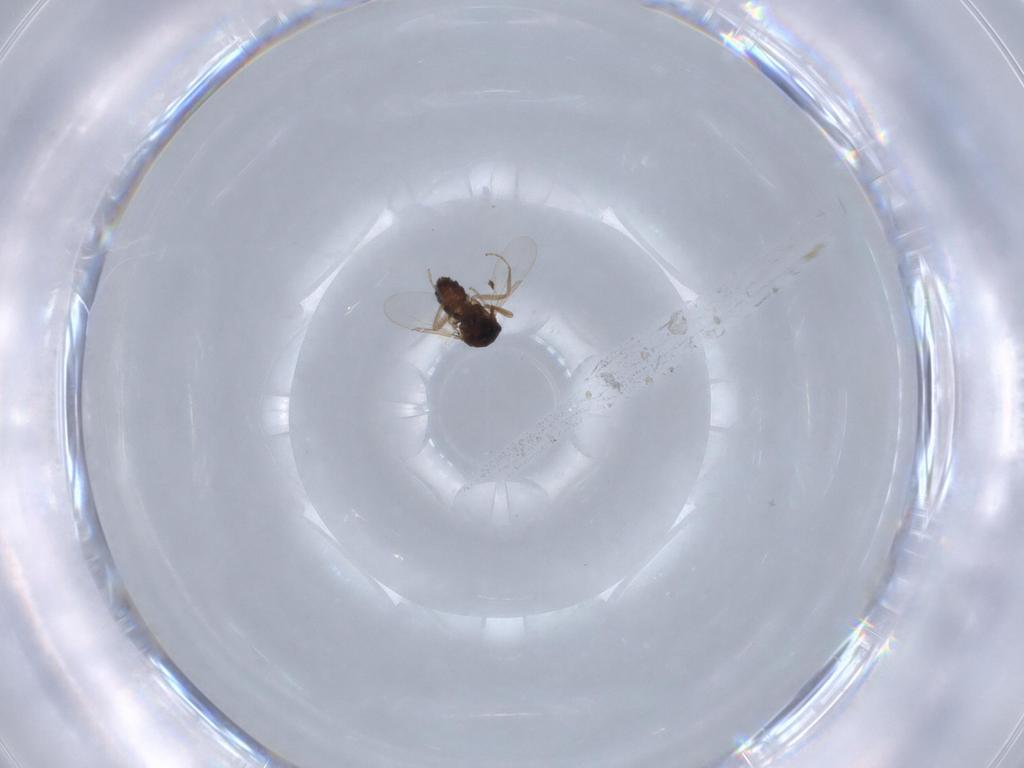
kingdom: Animalia
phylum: Arthropoda
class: Insecta
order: Diptera
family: Ceratopogonidae
